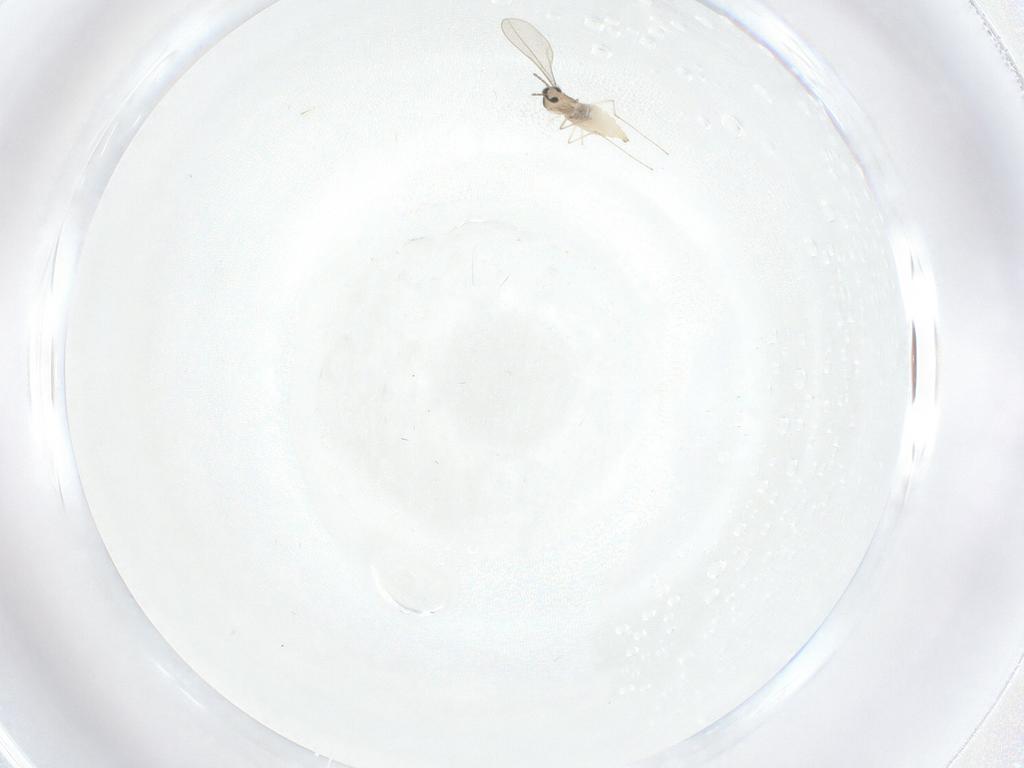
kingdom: Animalia
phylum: Arthropoda
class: Insecta
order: Diptera
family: Cecidomyiidae
